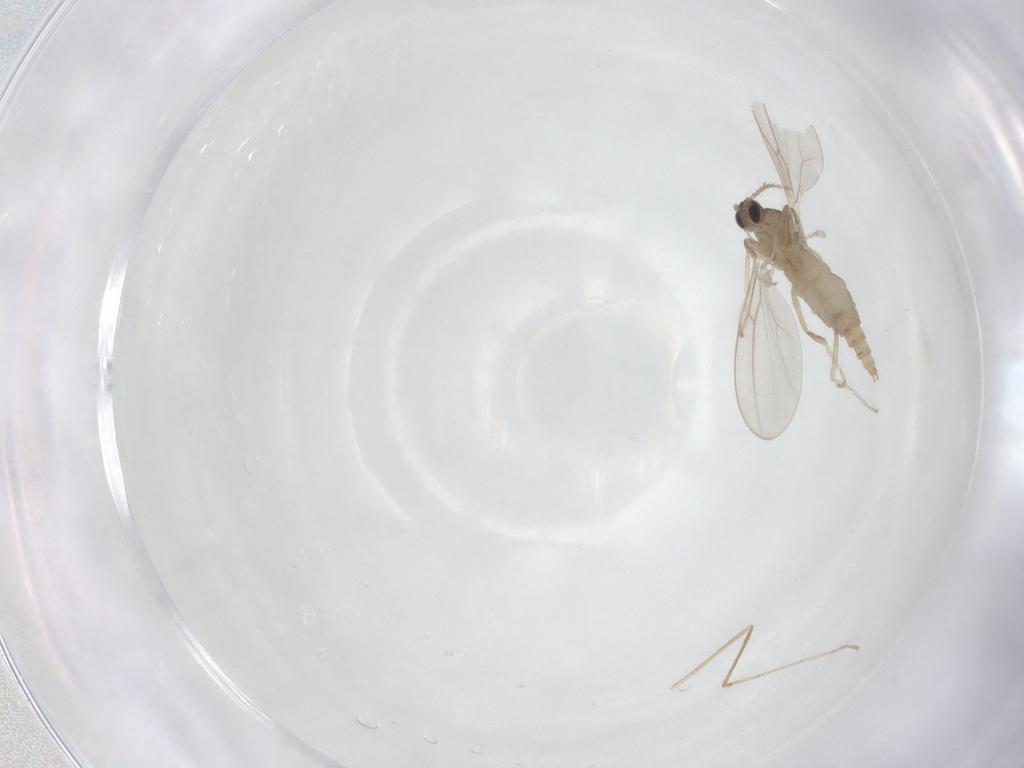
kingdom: Animalia
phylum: Arthropoda
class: Insecta
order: Diptera
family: Cecidomyiidae
